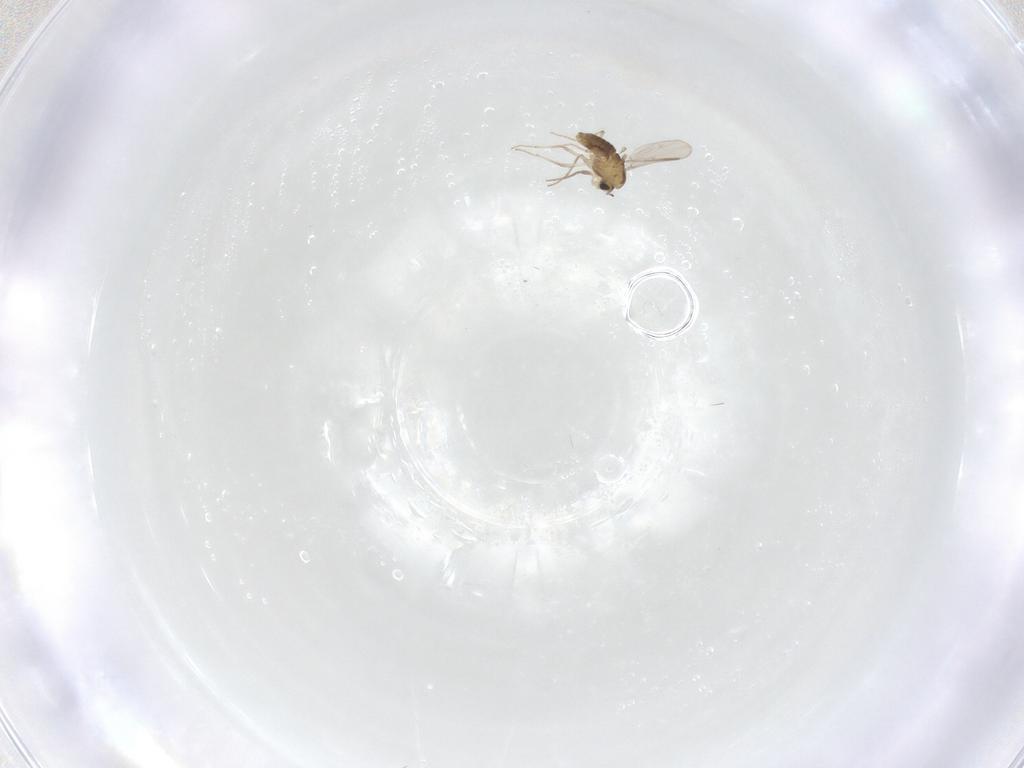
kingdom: Animalia
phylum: Arthropoda
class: Insecta
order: Diptera
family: Chironomidae
